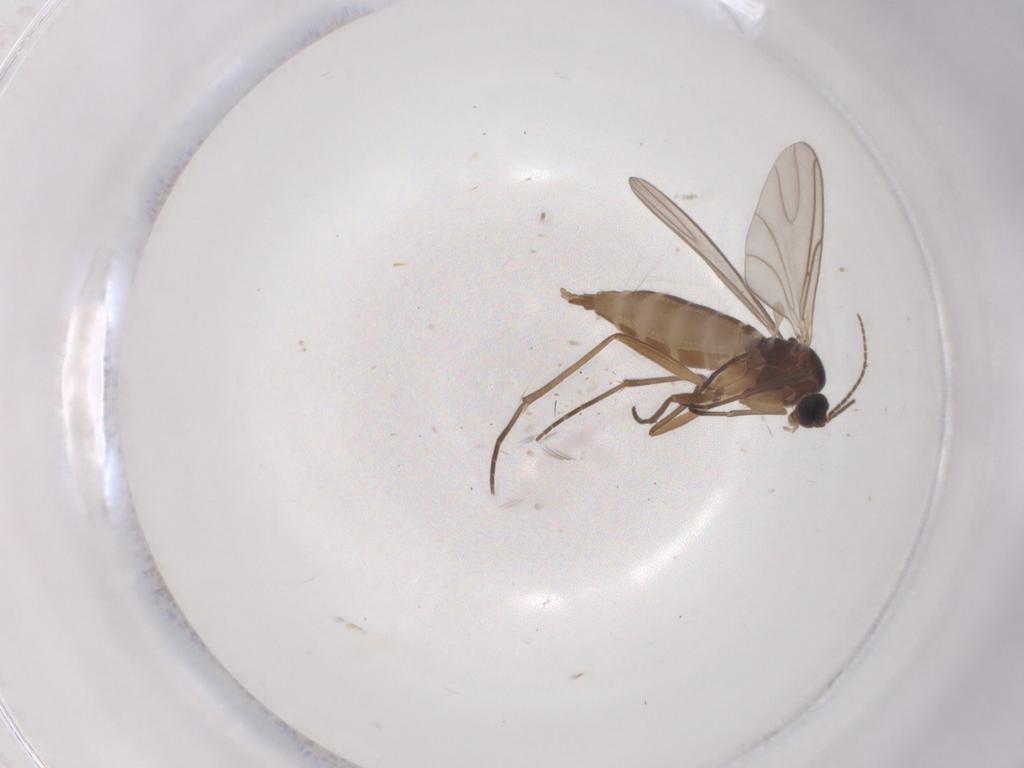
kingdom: Animalia
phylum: Arthropoda
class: Insecta
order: Diptera
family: Sciaridae
